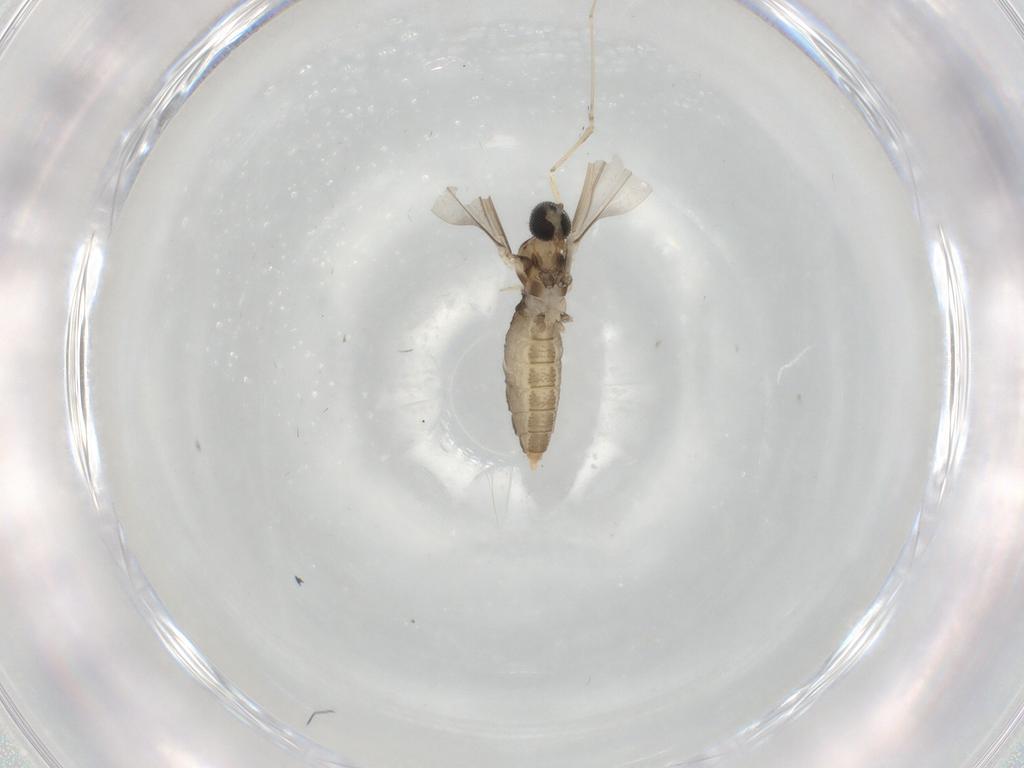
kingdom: Animalia
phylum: Arthropoda
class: Insecta
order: Diptera
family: Cecidomyiidae
